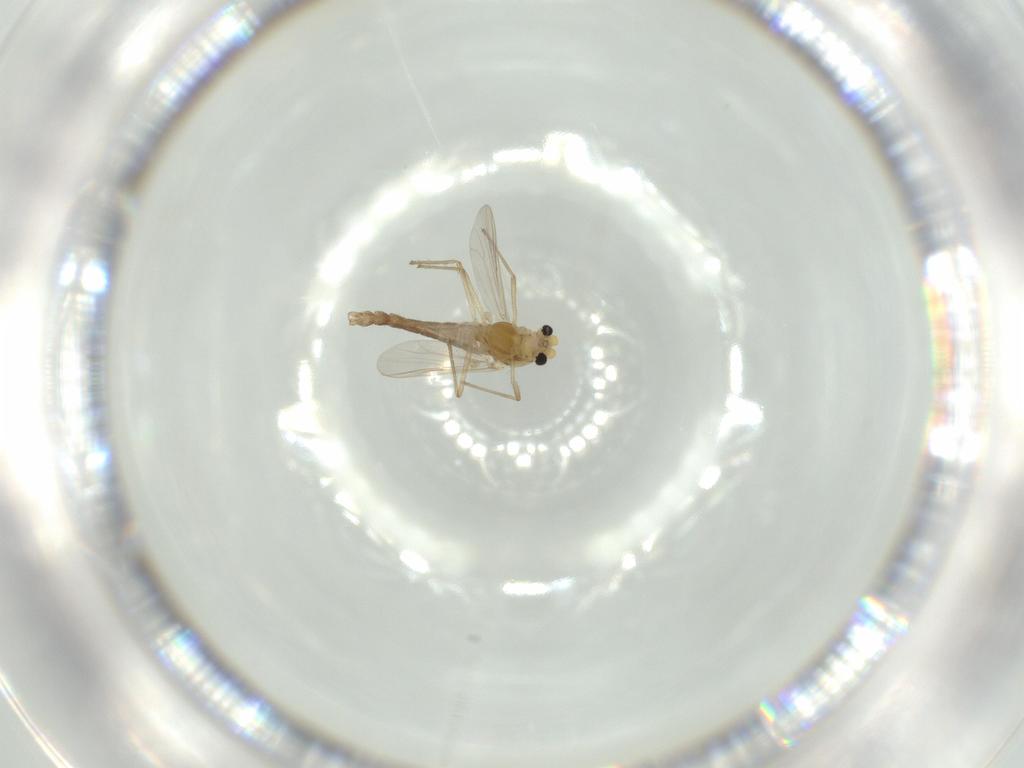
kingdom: Animalia
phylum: Arthropoda
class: Insecta
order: Diptera
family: Chironomidae
